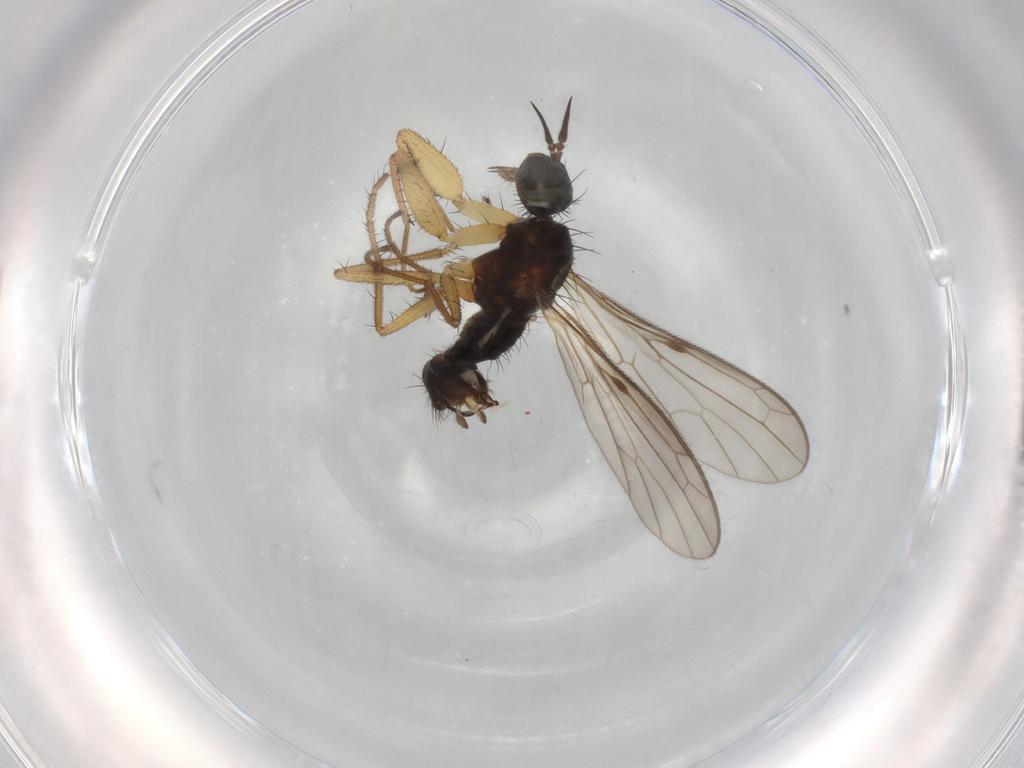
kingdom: Animalia
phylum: Arthropoda
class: Insecta
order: Diptera
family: Empididae
